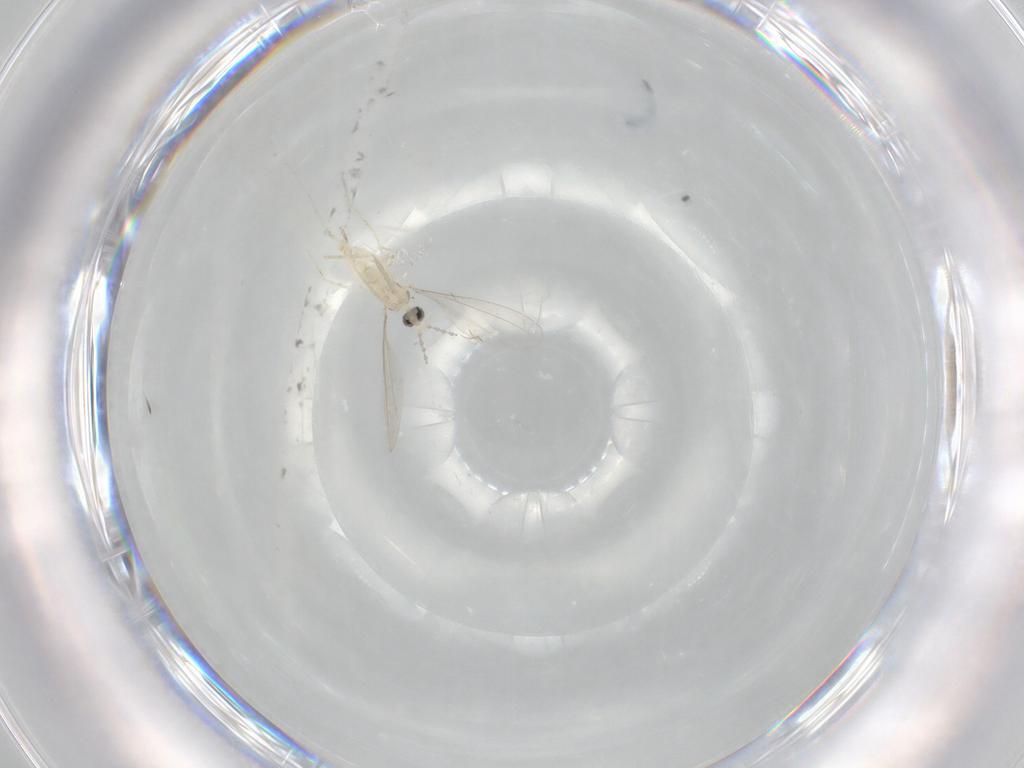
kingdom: Animalia
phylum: Arthropoda
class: Insecta
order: Diptera
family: Cecidomyiidae
